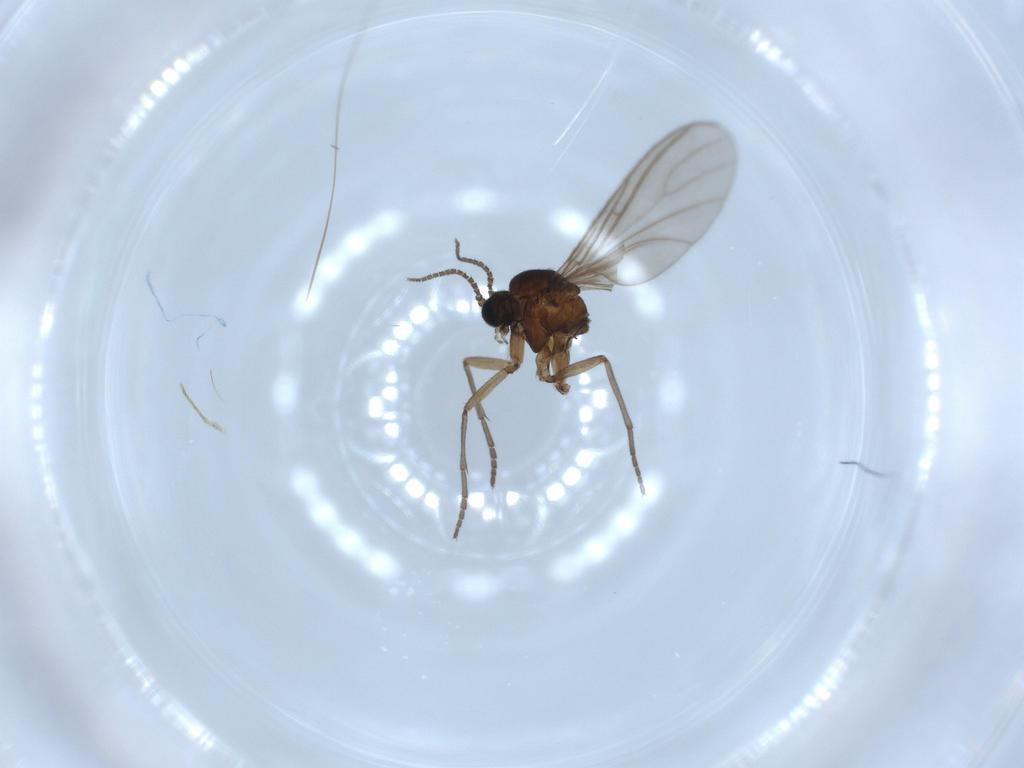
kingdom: Animalia
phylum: Arthropoda
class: Insecta
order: Diptera
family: Sciaridae
